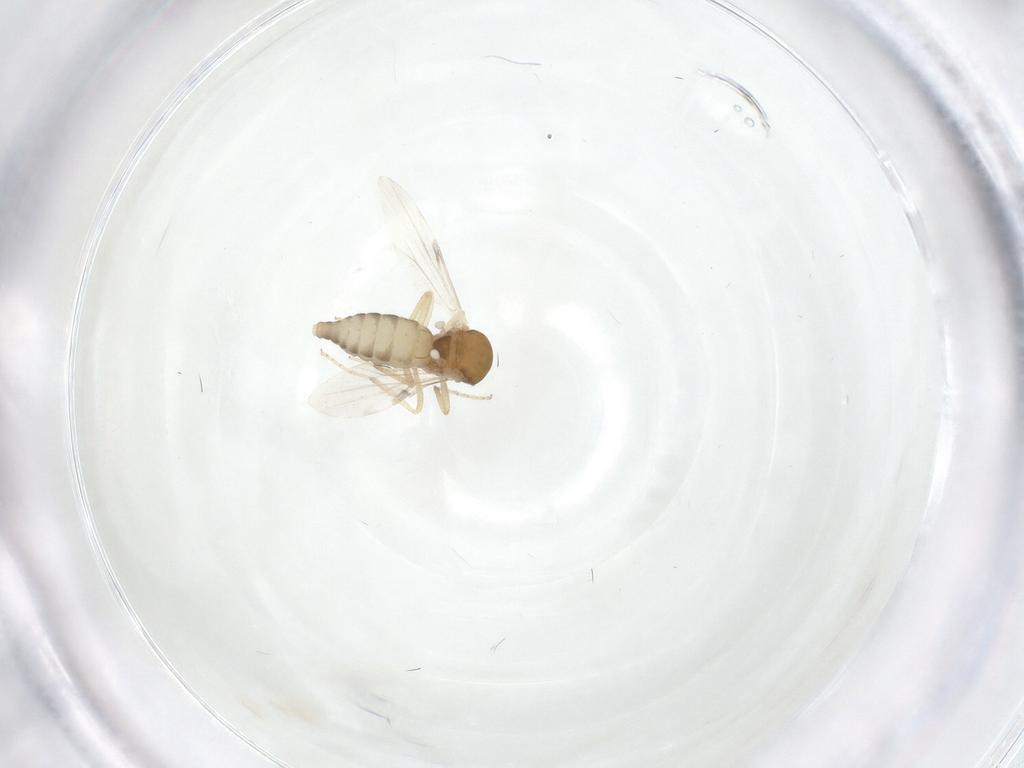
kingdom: Animalia
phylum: Arthropoda
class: Insecta
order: Diptera
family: Ceratopogonidae
